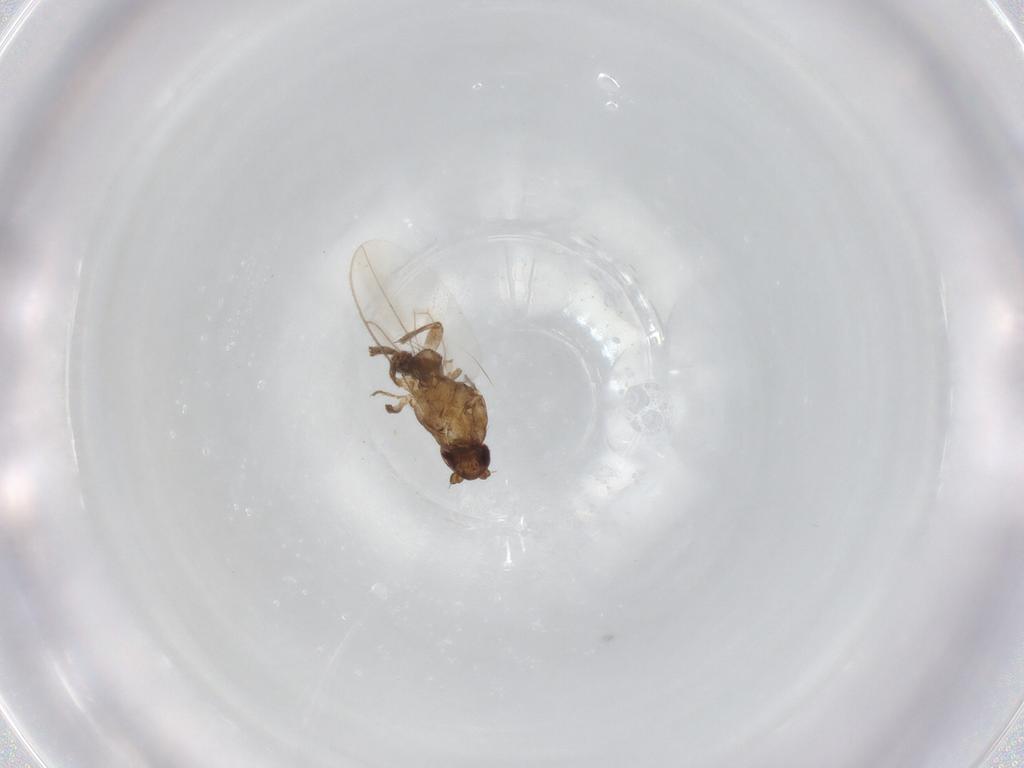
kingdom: Animalia
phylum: Arthropoda
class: Insecta
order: Diptera
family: Sphaeroceridae
